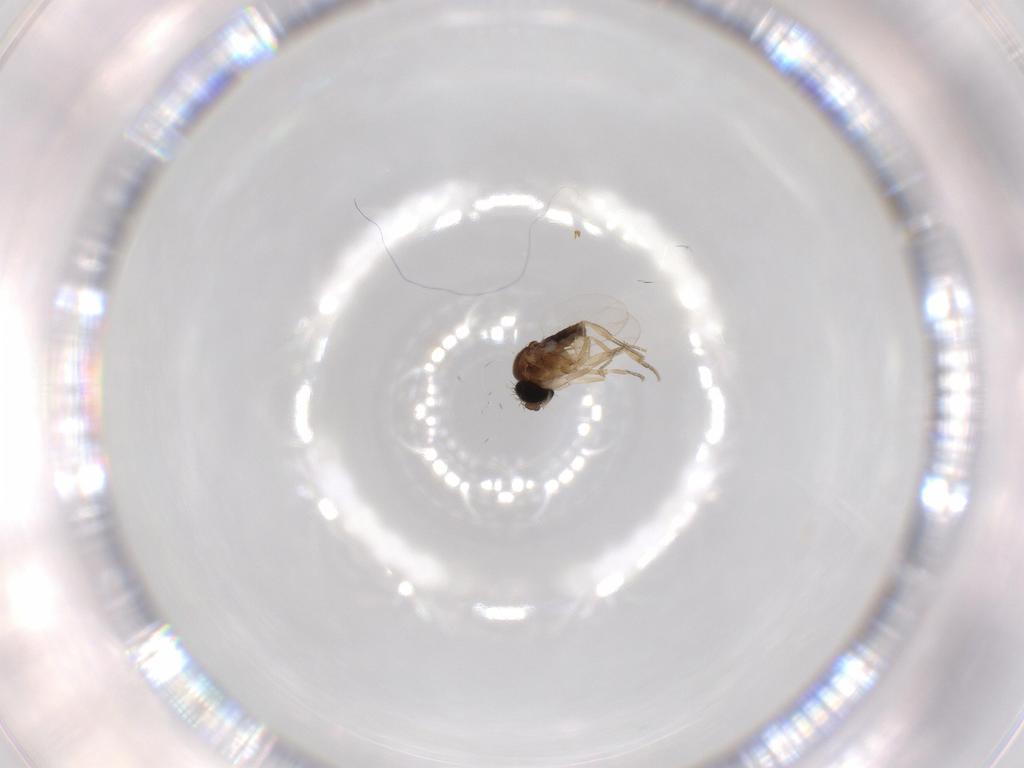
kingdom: Animalia
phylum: Arthropoda
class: Insecta
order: Diptera
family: Phoridae
